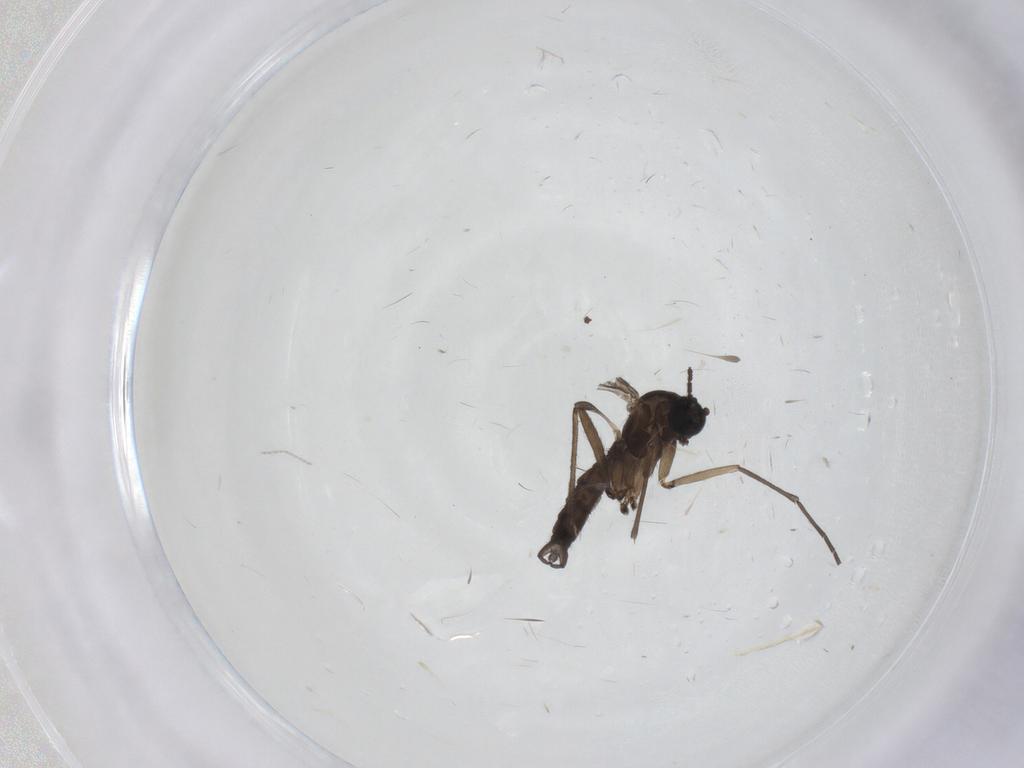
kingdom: Animalia
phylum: Arthropoda
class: Insecta
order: Diptera
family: Sciaridae
